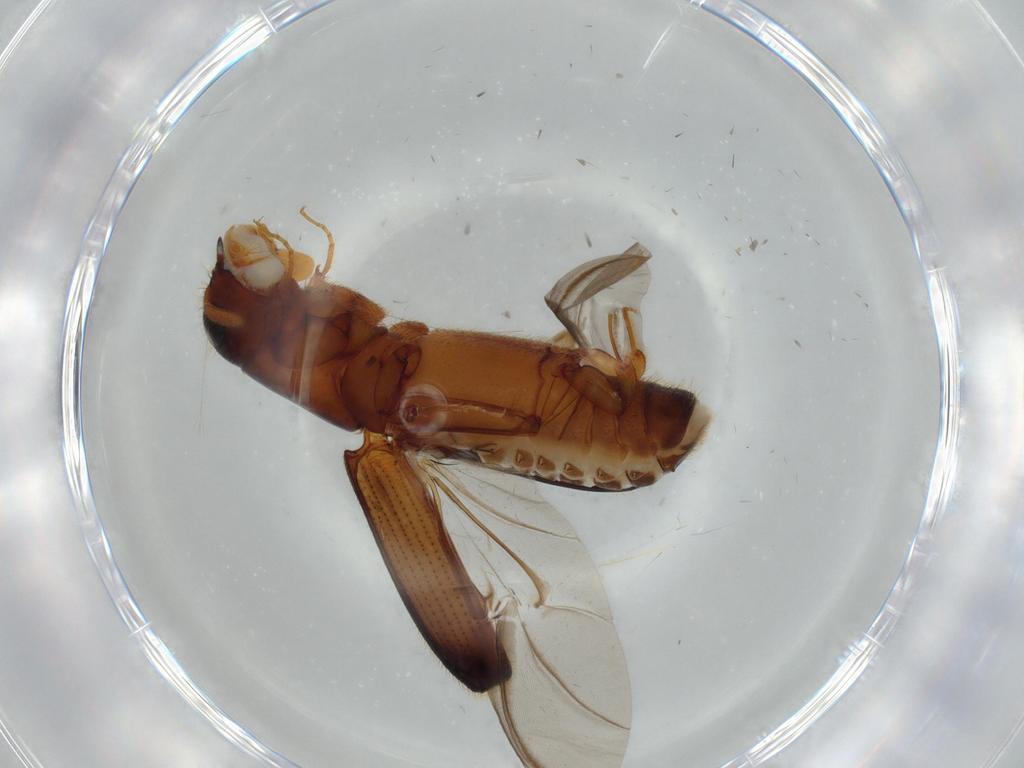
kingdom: Animalia
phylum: Arthropoda
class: Insecta
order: Coleoptera
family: Curculionidae
